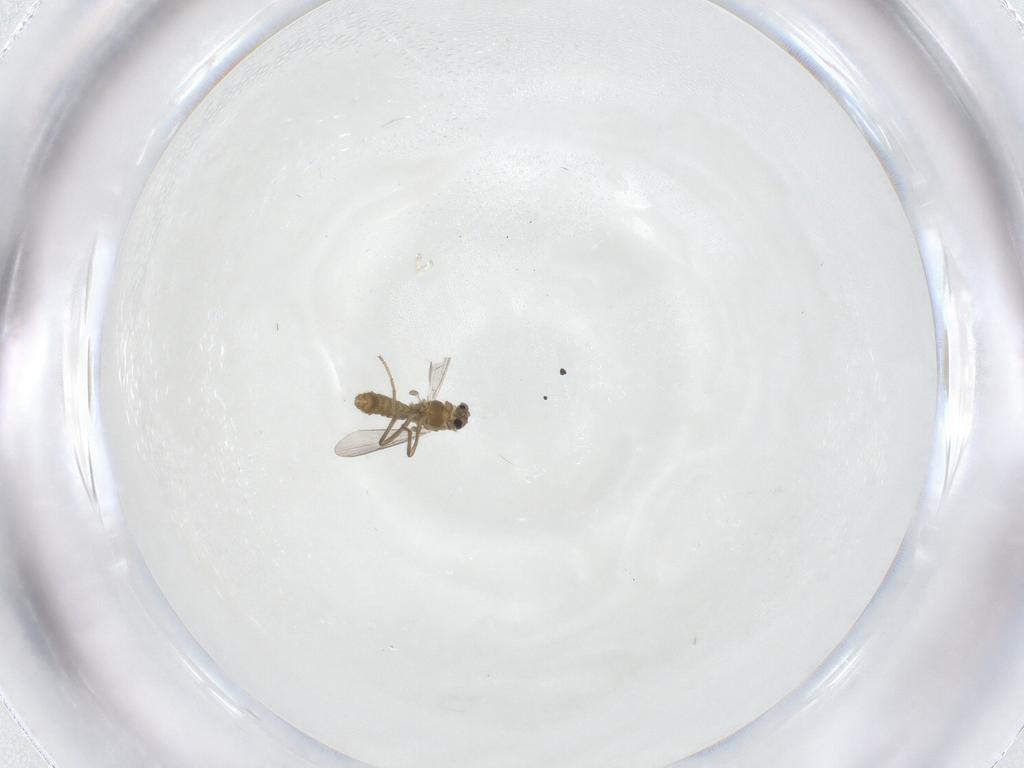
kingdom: Animalia
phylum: Arthropoda
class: Insecta
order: Diptera
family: Chironomidae
